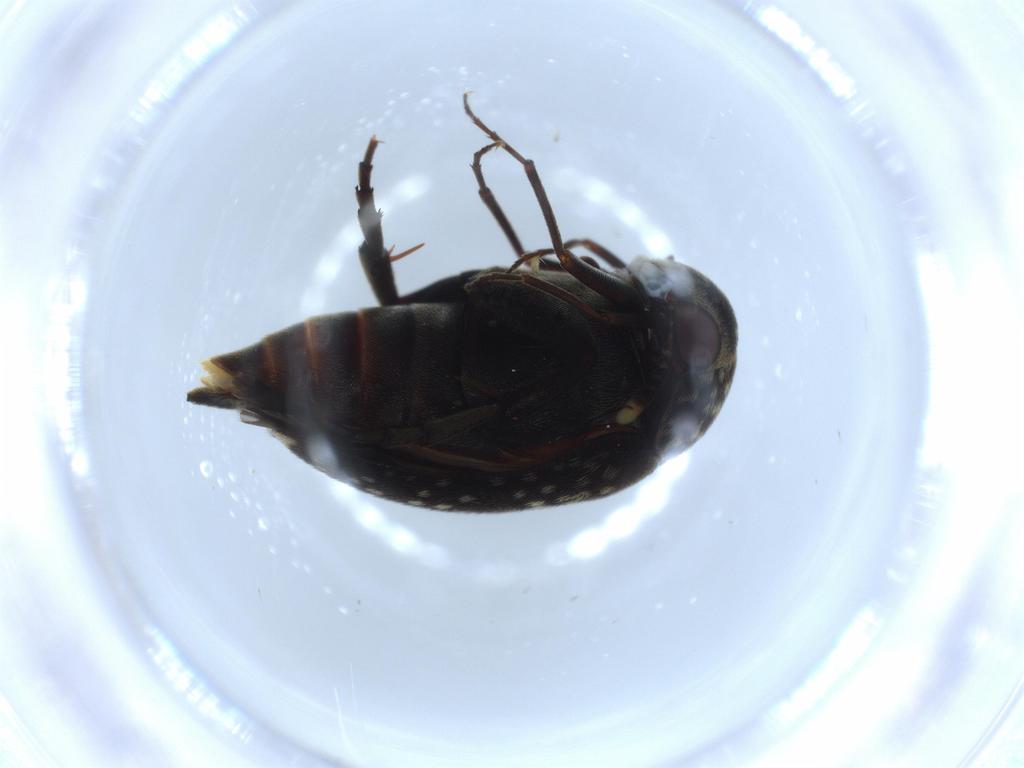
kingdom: Animalia
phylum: Arthropoda
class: Insecta
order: Coleoptera
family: Mordellidae
